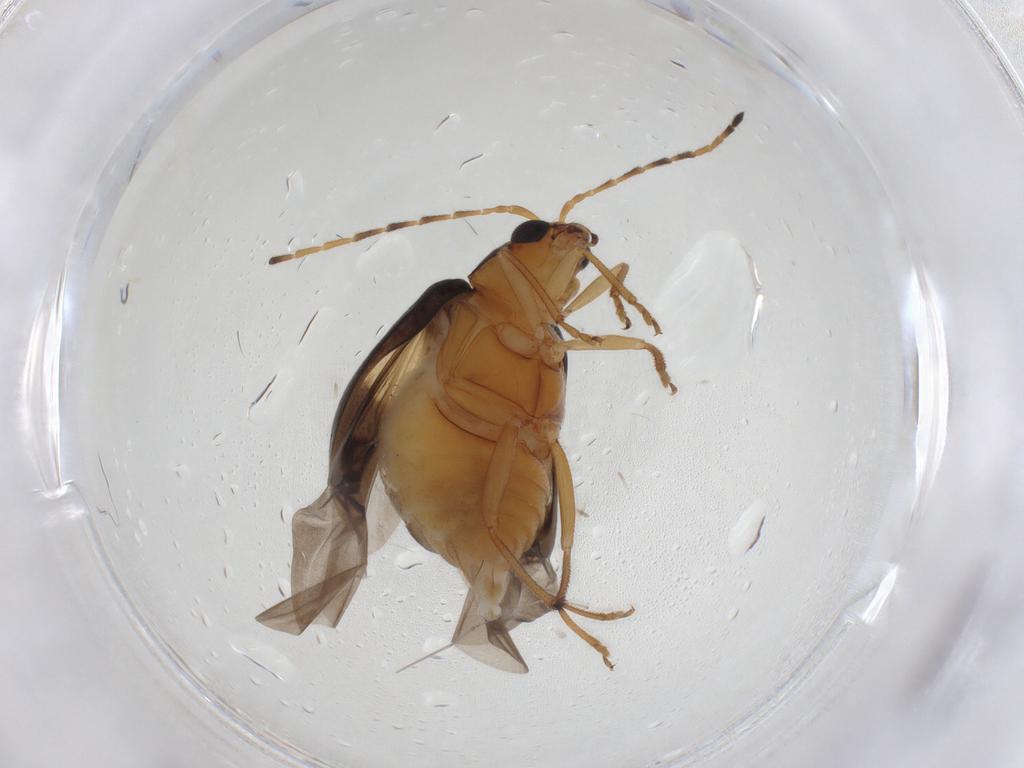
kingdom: Animalia
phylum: Arthropoda
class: Insecta
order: Coleoptera
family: Chrysomelidae
